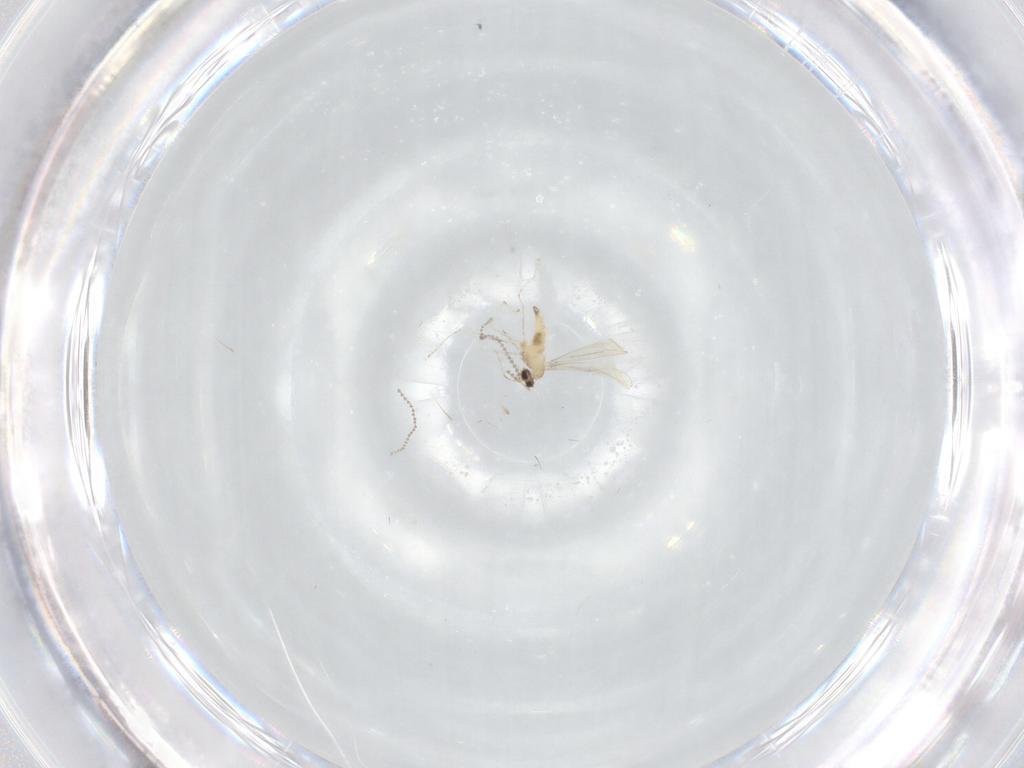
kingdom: Animalia
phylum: Arthropoda
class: Insecta
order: Diptera
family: Cecidomyiidae
